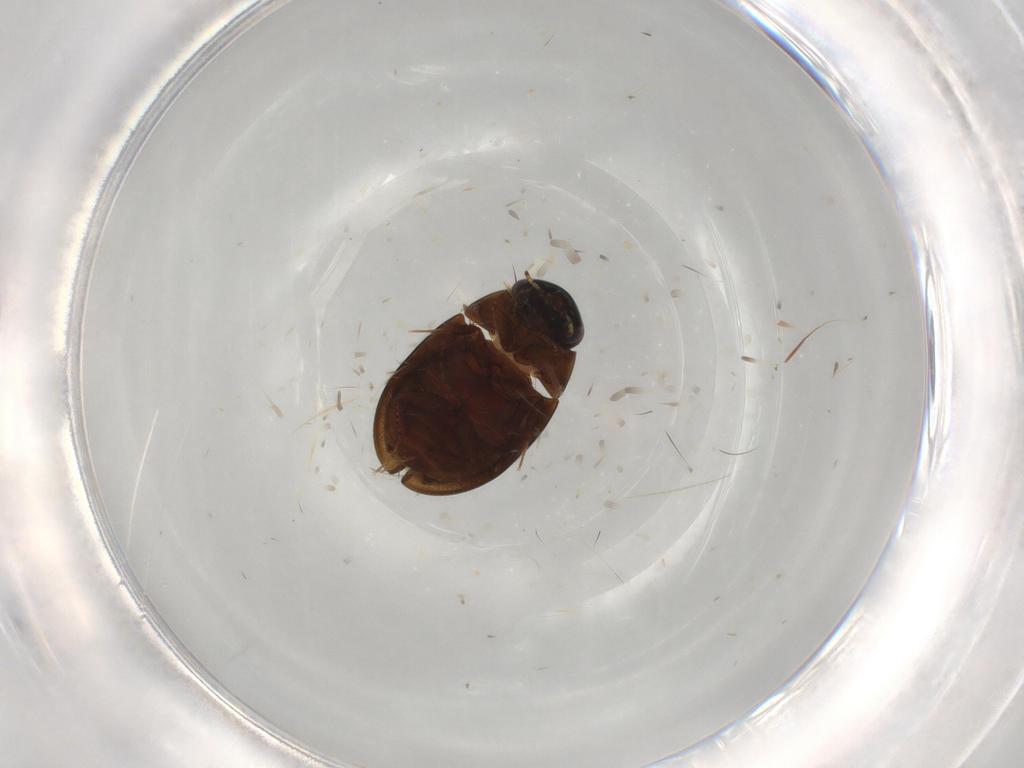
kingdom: Animalia
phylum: Arthropoda
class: Insecta
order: Coleoptera
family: Hydrophilidae
